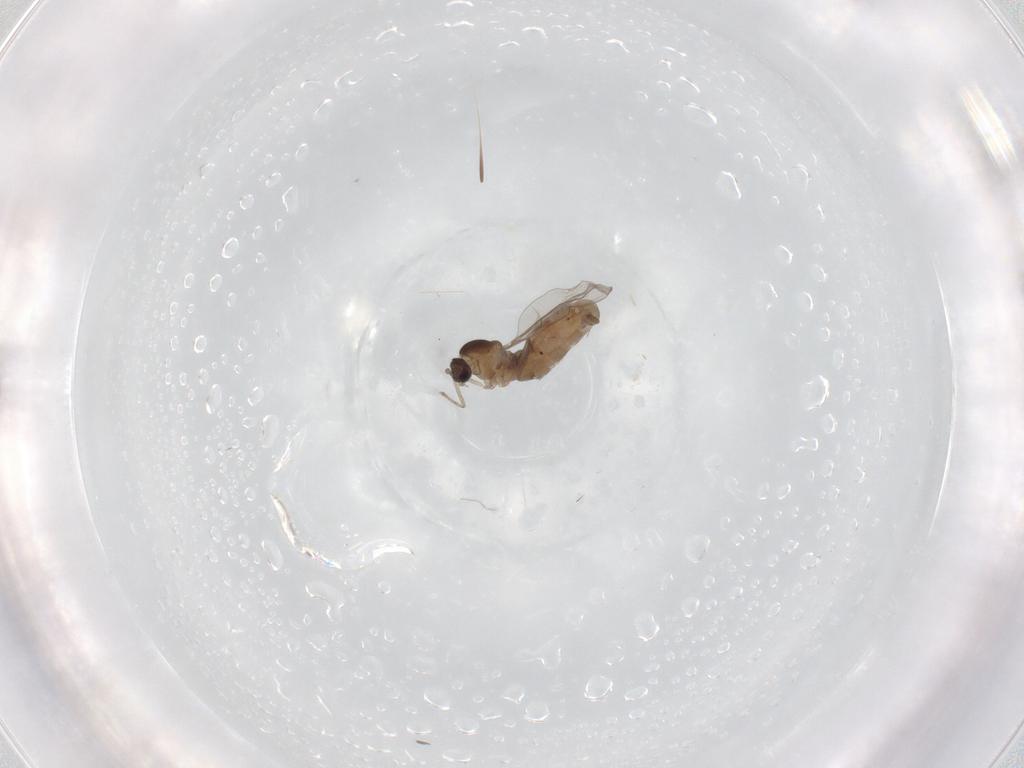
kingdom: Animalia
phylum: Arthropoda
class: Insecta
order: Diptera
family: Cecidomyiidae
